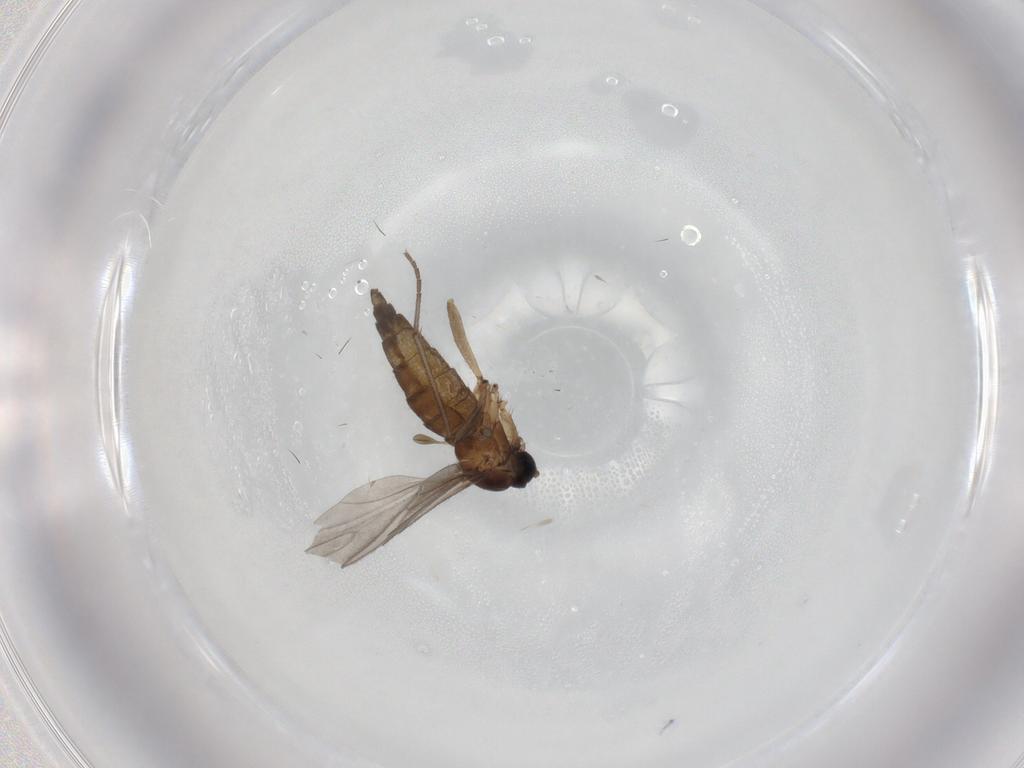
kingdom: Animalia
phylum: Arthropoda
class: Insecta
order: Diptera
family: Sciaridae
